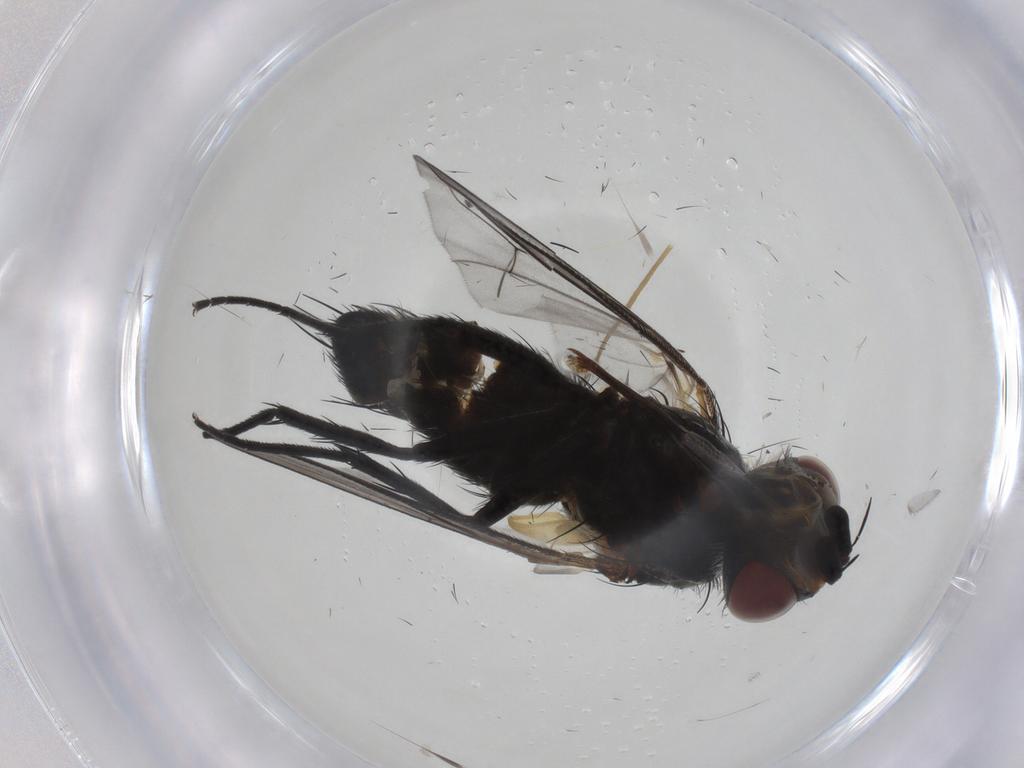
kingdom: Animalia
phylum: Arthropoda
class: Insecta
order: Diptera
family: Tachinidae
